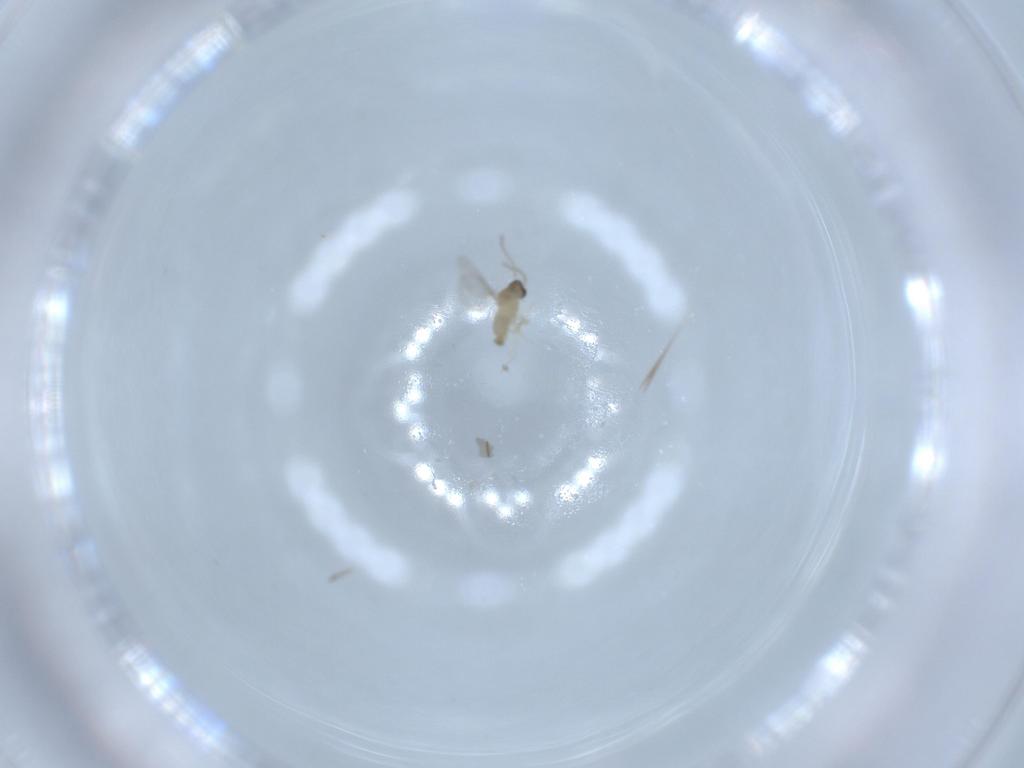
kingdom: Animalia
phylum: Arthropoda
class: Insecta
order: Diptera
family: Cecidomyiidae
